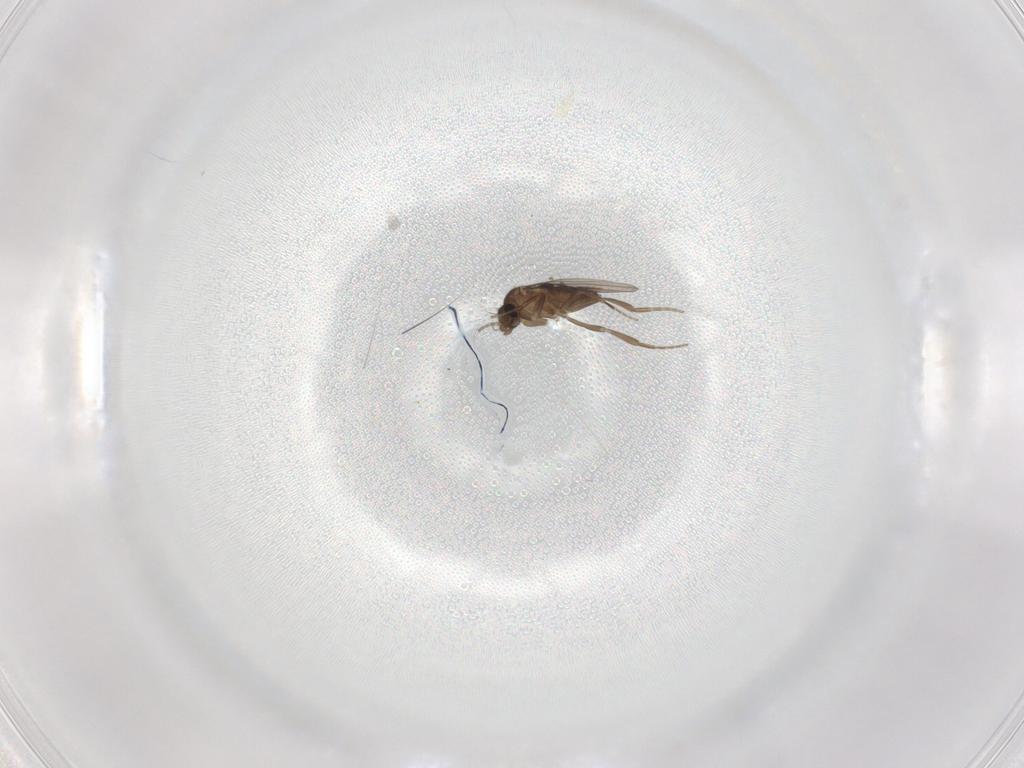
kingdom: Animalia
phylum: Arthropoda
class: Insecta
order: Diptera
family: Phoridae
